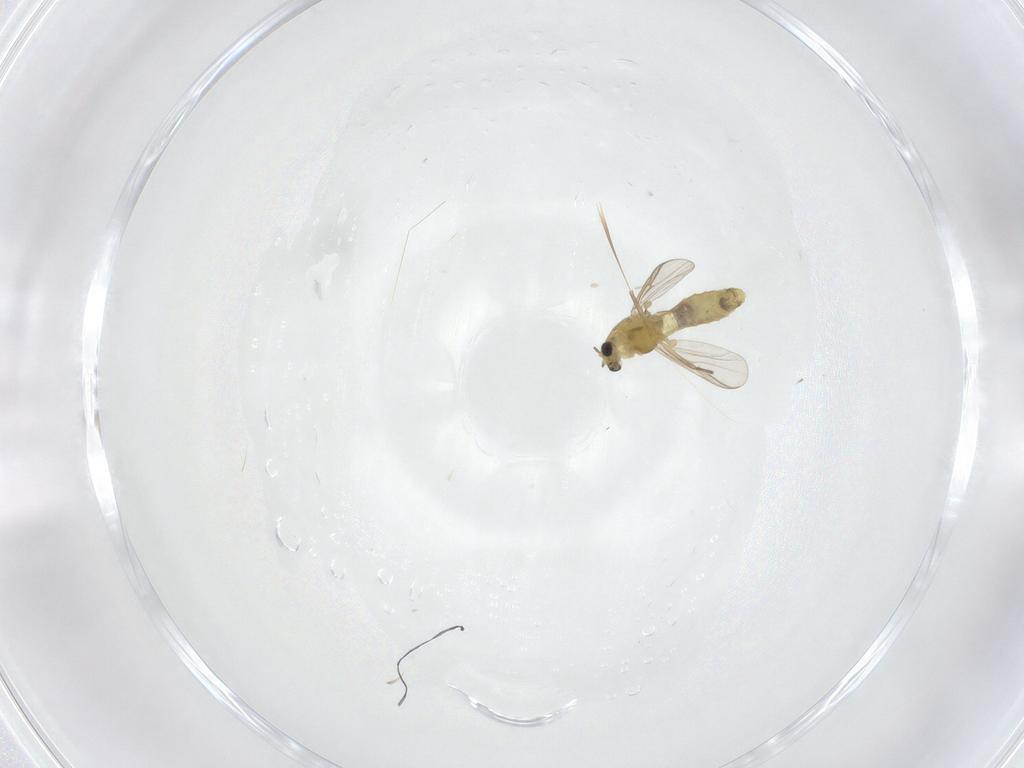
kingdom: Animalia
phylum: Arthropoda
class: Insecta
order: Diptera
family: Chironomidae
